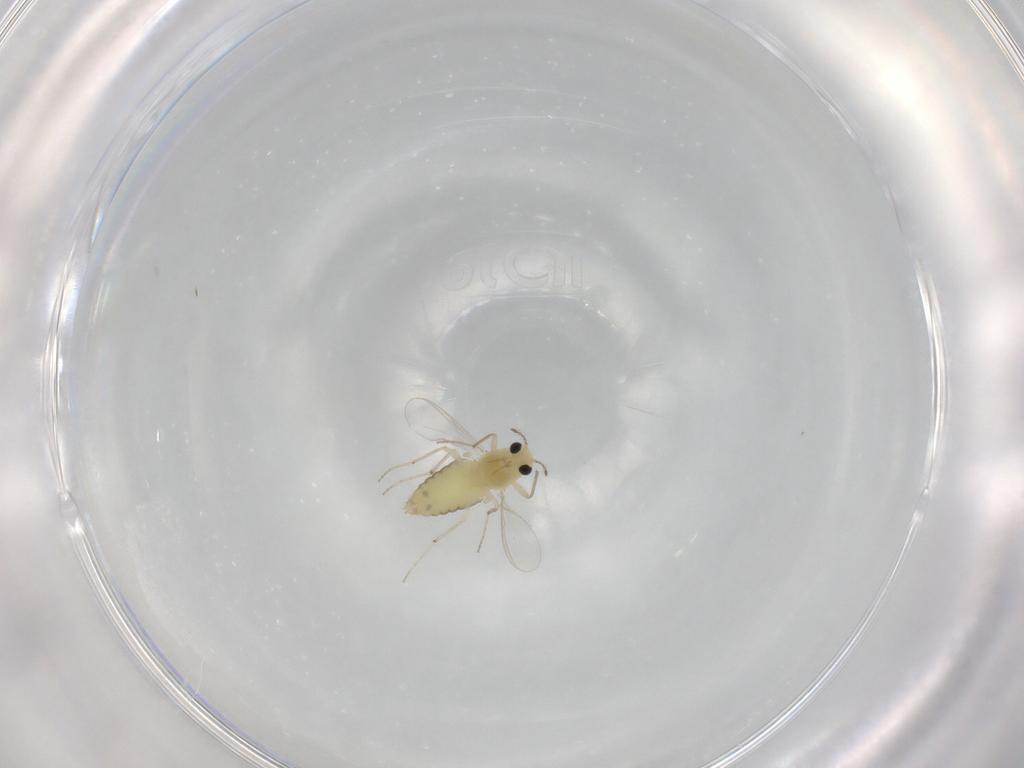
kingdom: Animalia
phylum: Arthropoda
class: Insecta
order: Diptera
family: Chironomidae
